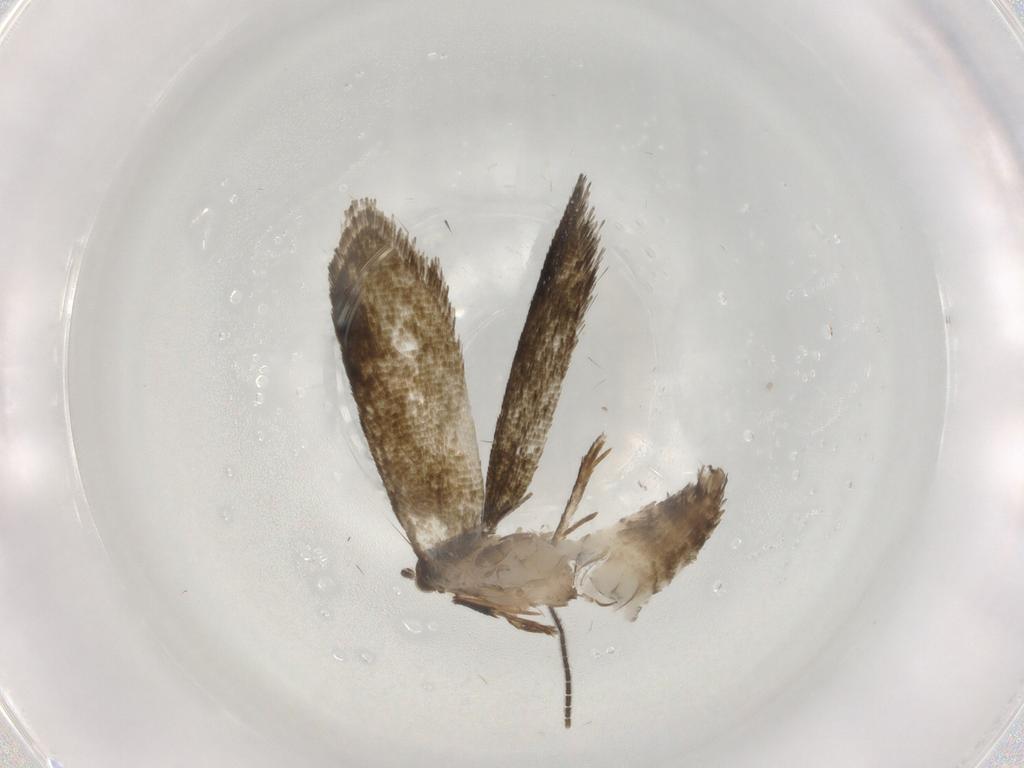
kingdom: Animalia
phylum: Arthropoda
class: Insecta
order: Lepidoptera
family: Tineidae
